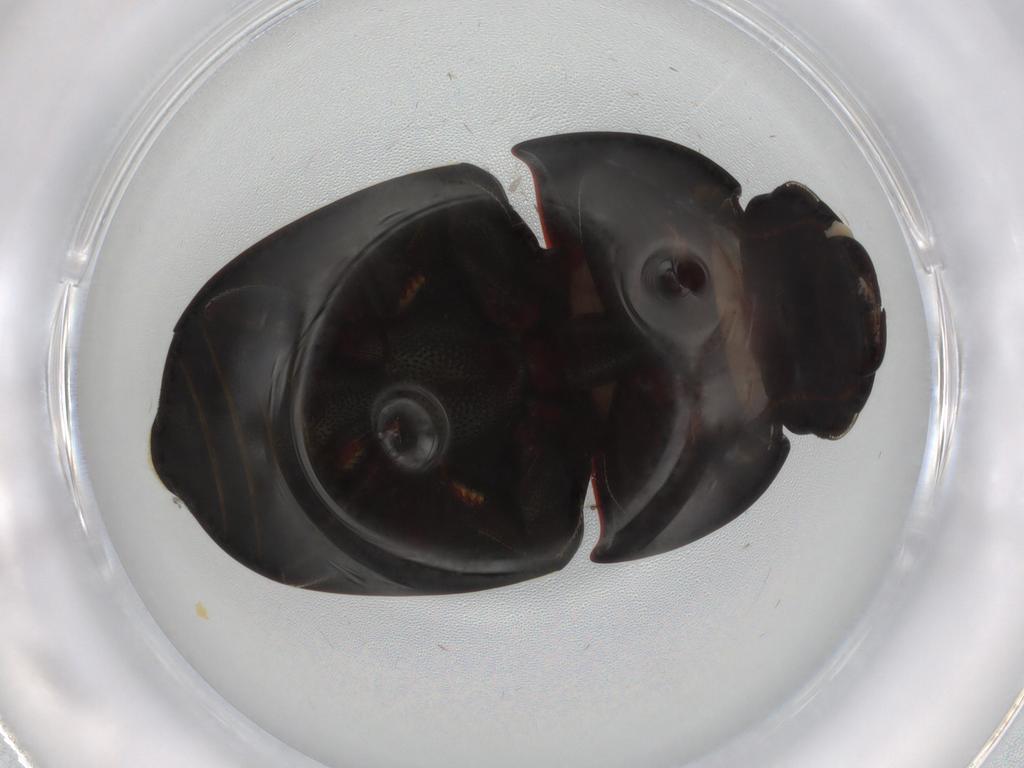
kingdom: Animalia
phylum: Arthropoda
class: Insecta
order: Coleoptera
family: Nitidulidae
